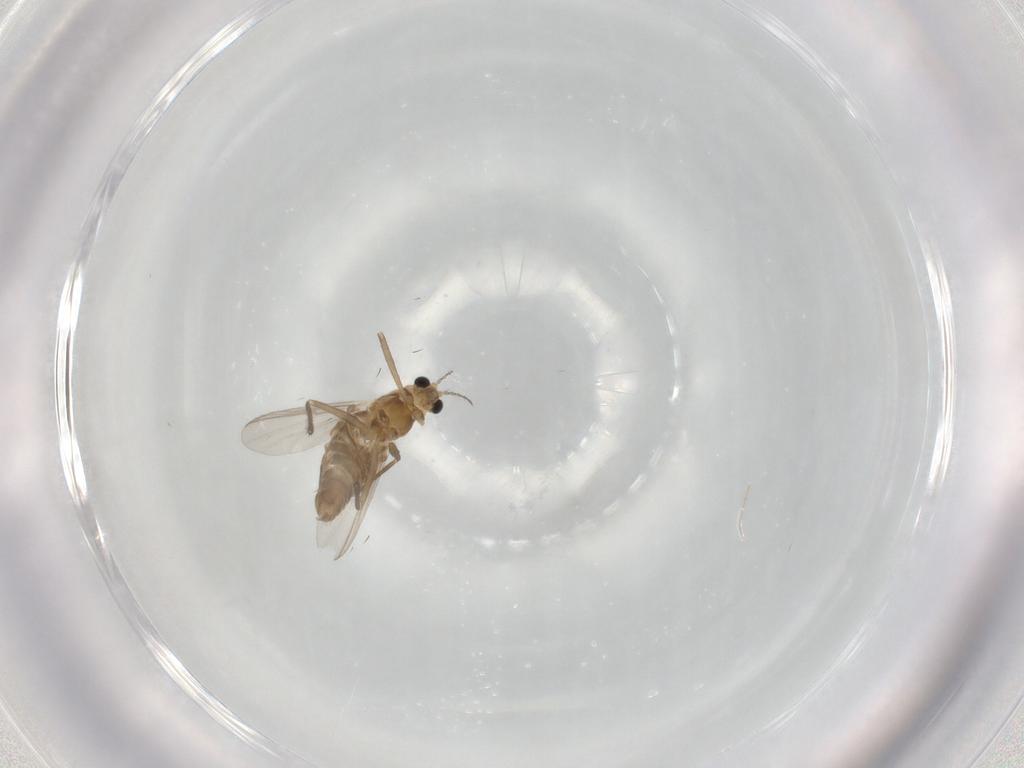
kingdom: Animalia
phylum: Arthropoda
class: Insecta
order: Diptera
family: Chironomidae
